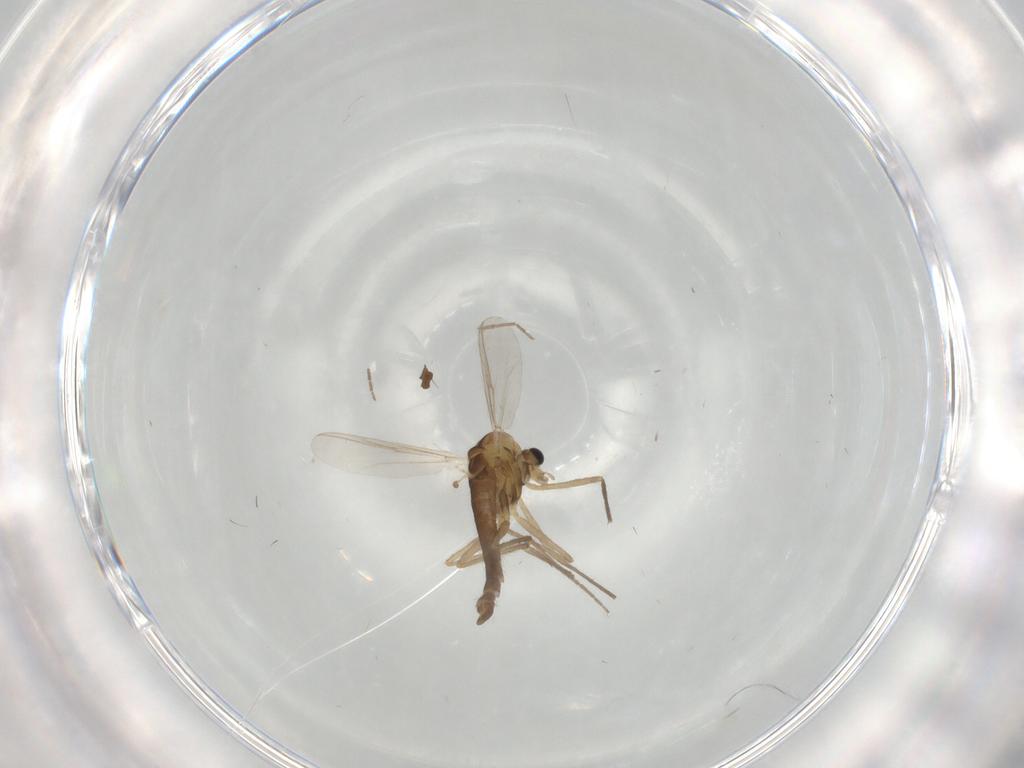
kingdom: Animalia
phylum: Arthropoda
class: Insecta
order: Diptera
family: Chironomidae
